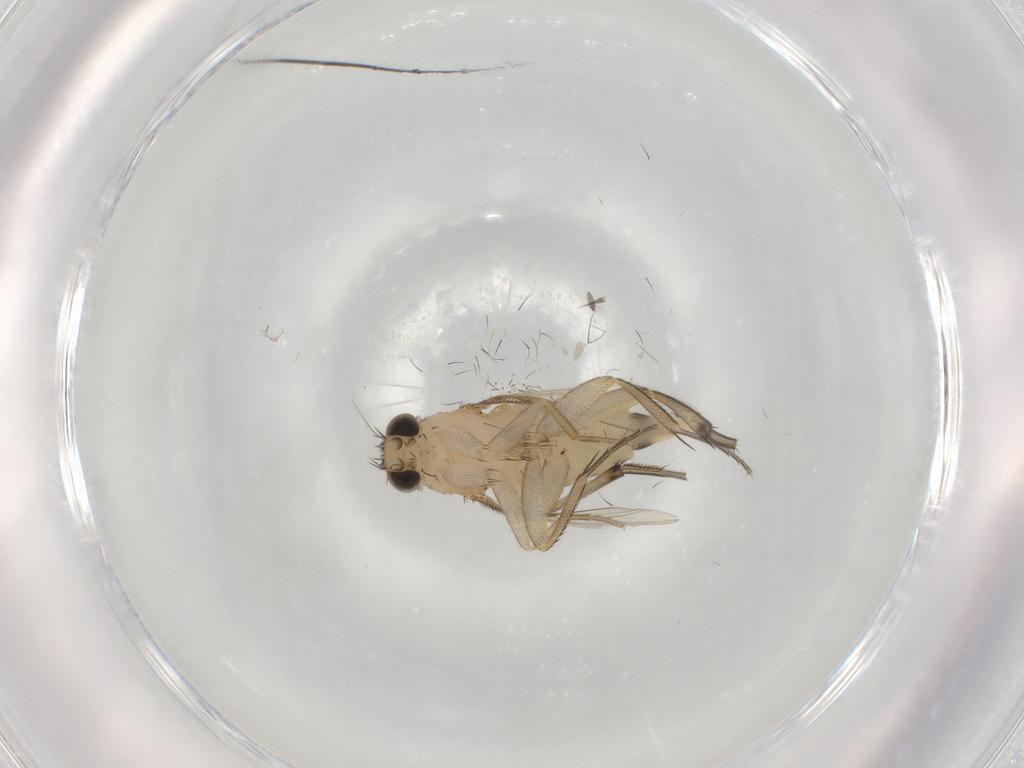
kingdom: Animalia
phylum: Arthropoda
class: Insecta
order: Diptera
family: Phoridae
